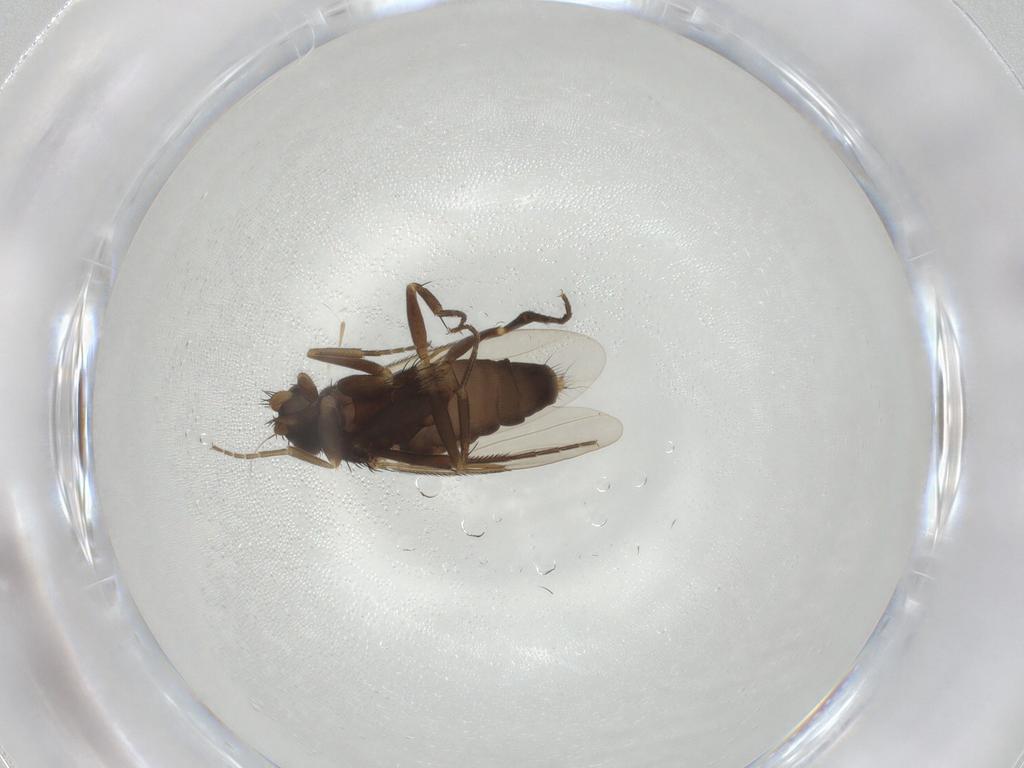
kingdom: Animalia
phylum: Arthropoda
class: Insecta
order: Diptera
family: Phoridae
